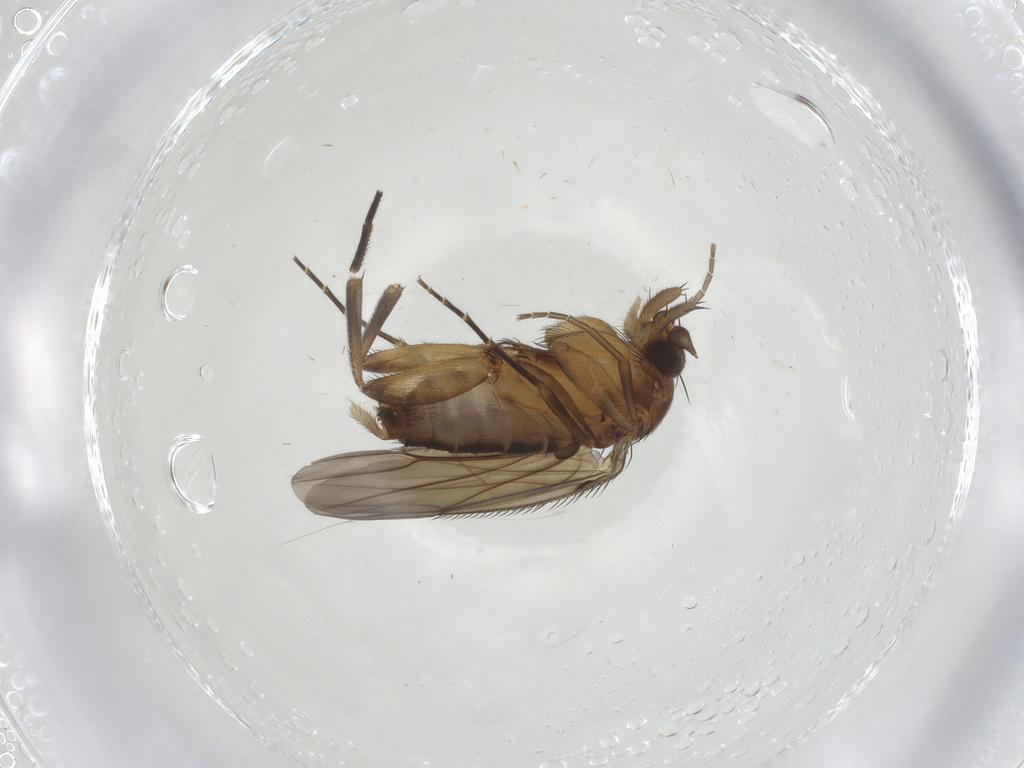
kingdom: Animalia
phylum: Arthropoda
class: Insecta
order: Diptera
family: Phoridae
